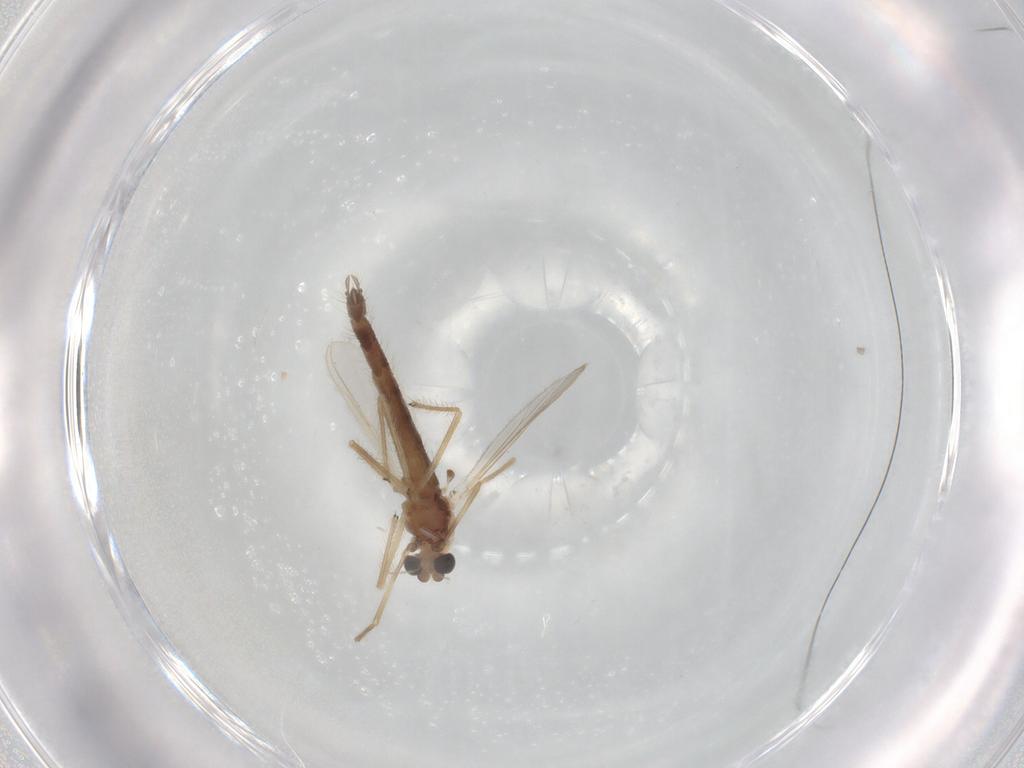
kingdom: Animalia
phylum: Arthropoda
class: Insecta
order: Diptera
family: Chironomidae
